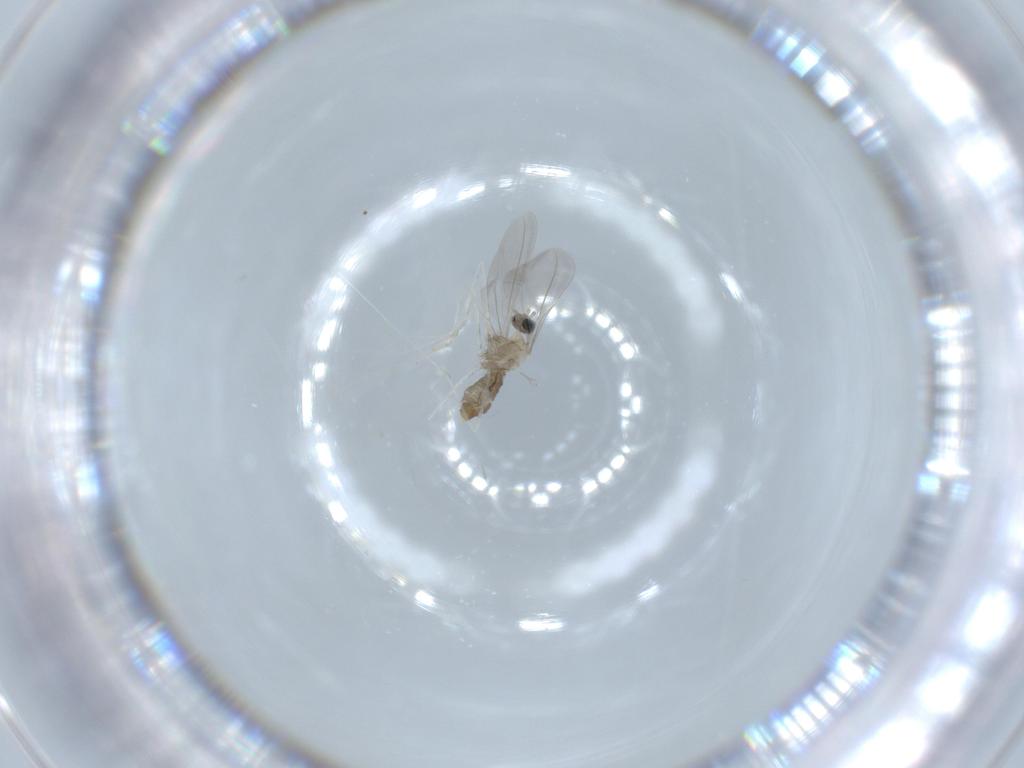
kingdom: Animalia
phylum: Arthropoda
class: Insecta
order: Diptera
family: Cecidomyiidae
